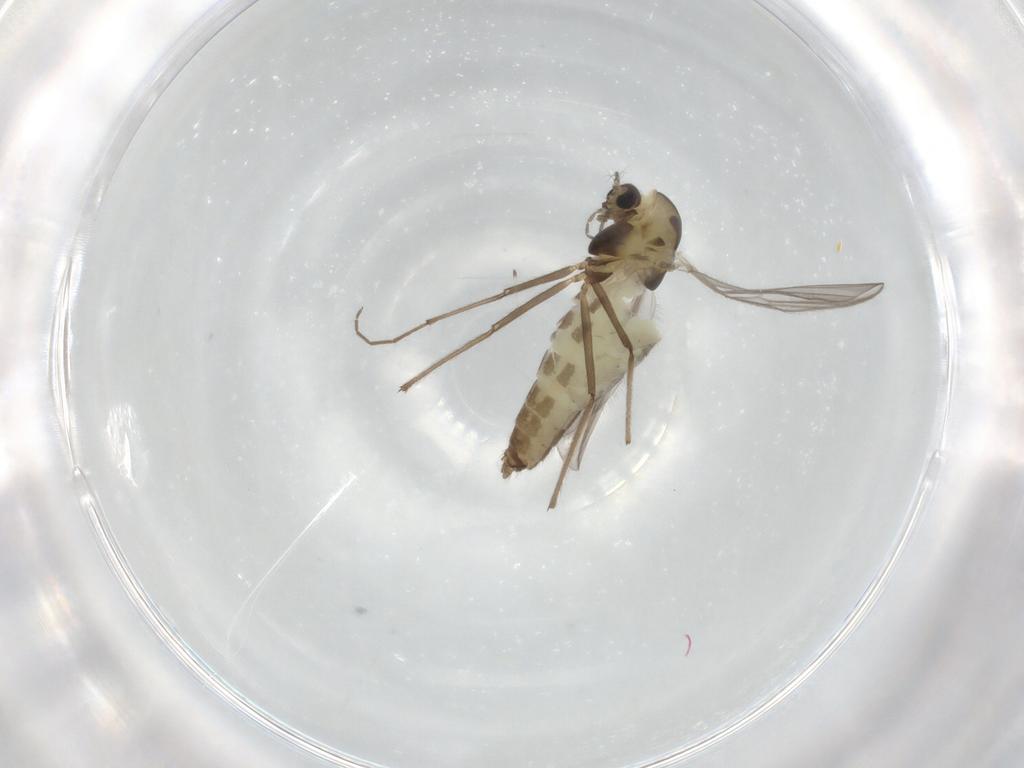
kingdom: Animalia
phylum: Arthropoda
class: Insecta
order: Diptera
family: Chironomidae
